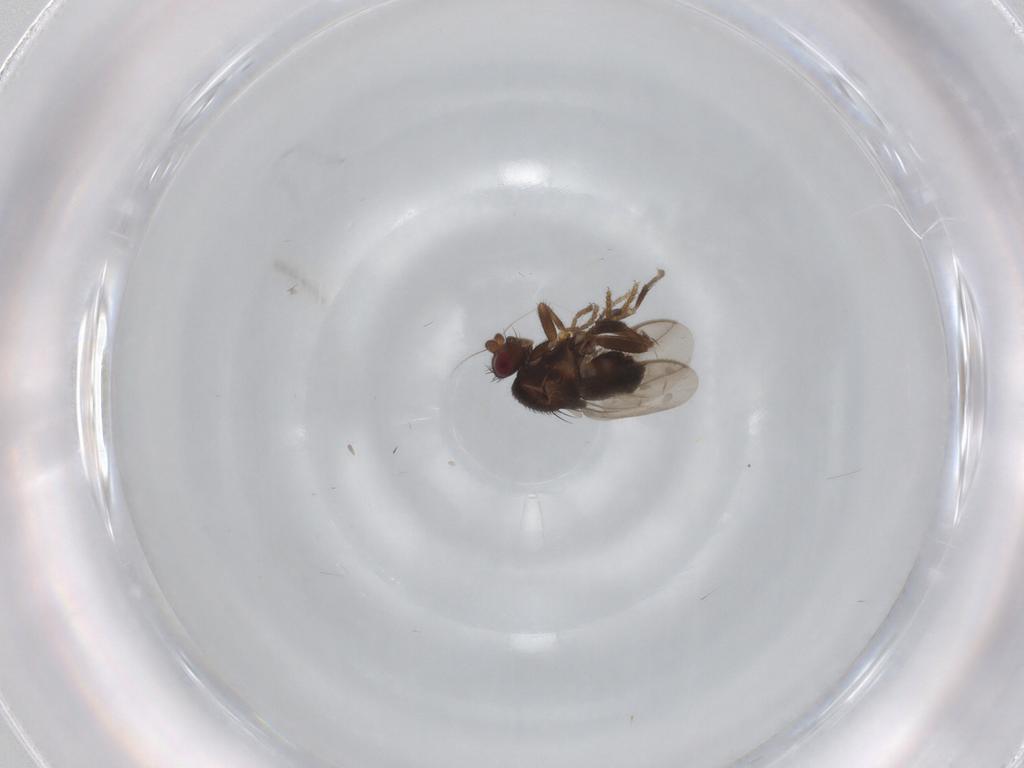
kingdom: Animalia
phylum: Arthropoda
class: Insecta
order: Diptera
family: Sphaeroceridae
